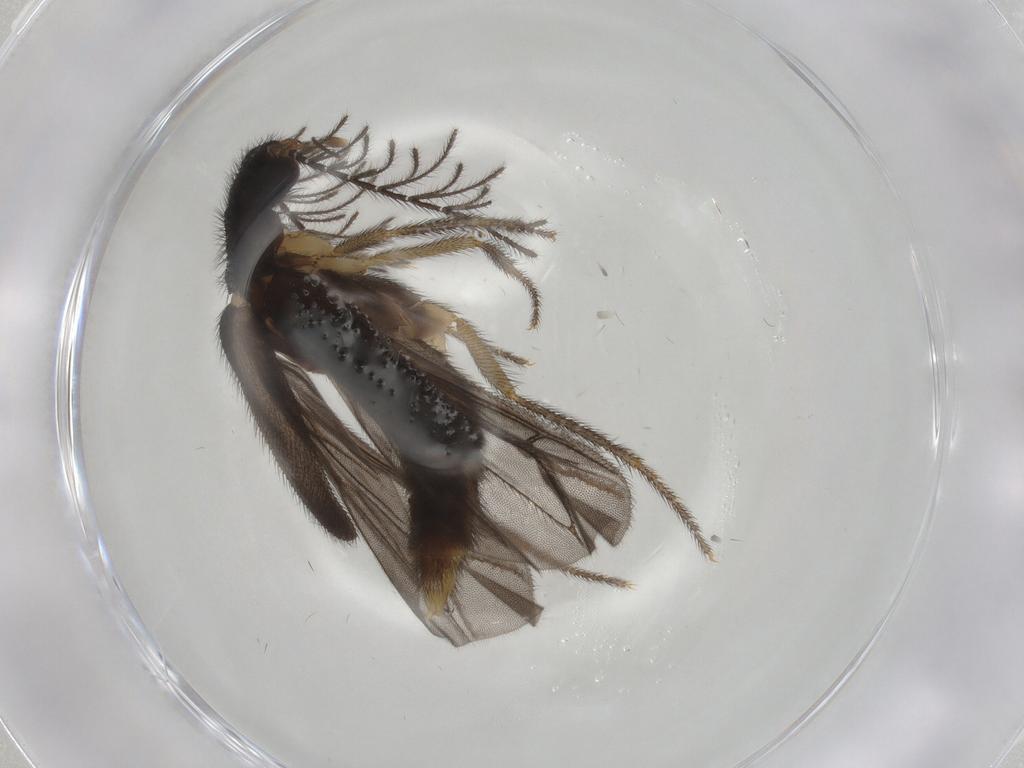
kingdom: Animalia
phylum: Arthropoda
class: Insecta
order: Coleoptera
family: Phengodidae
